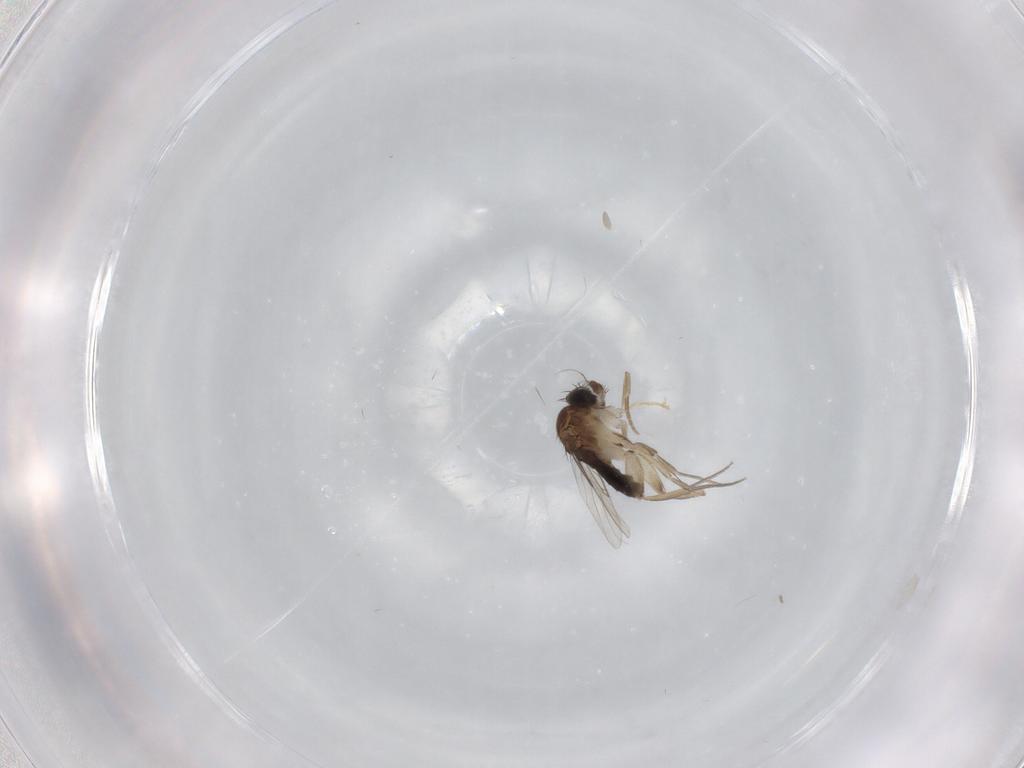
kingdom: Animalia
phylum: Arthropoda
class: Insecta
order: Diptera
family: Phoridae
